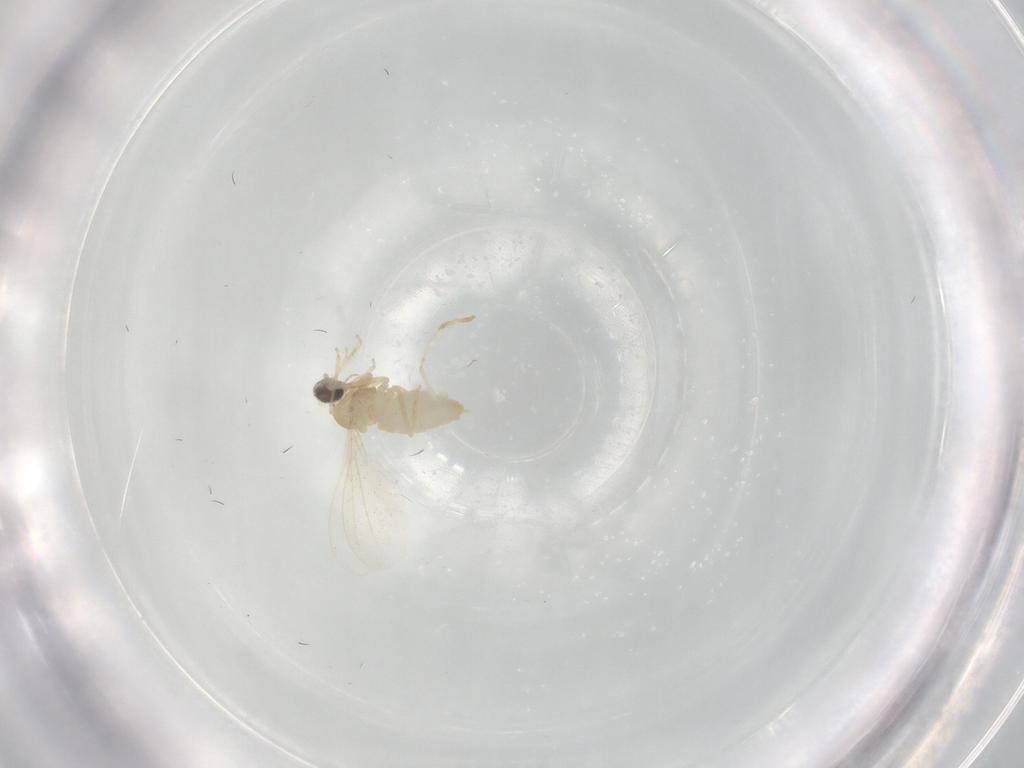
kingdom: Animalia
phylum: Arthropoda
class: Insecta
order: Diptera
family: Cecidomyiidae
